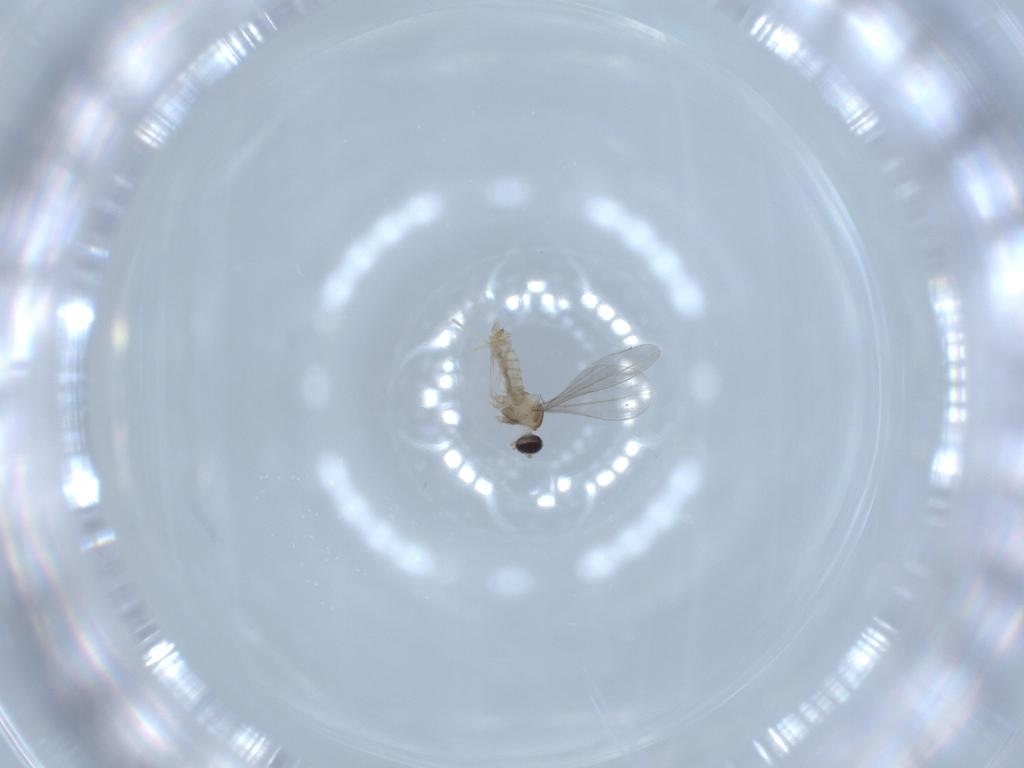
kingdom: Animalia
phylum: Arthropoda
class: Insecta
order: Diptera
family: Cecidomyiidae
